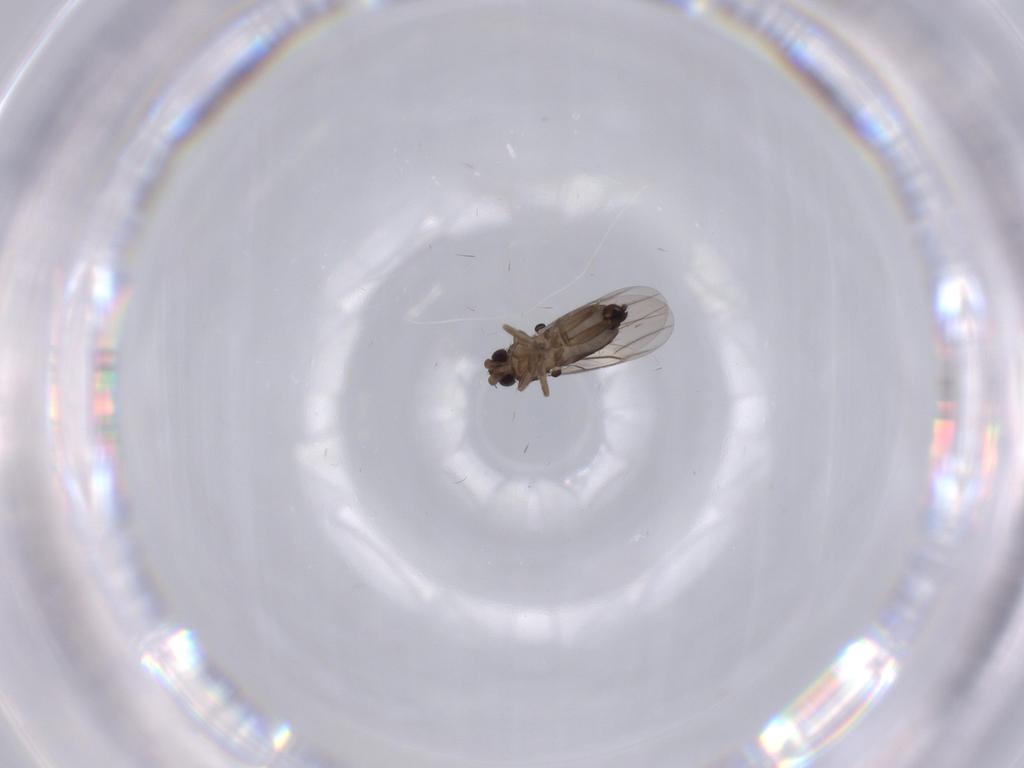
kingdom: Animalia
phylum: Arthropoda
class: Insecta
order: Diptera
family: Phoridae
